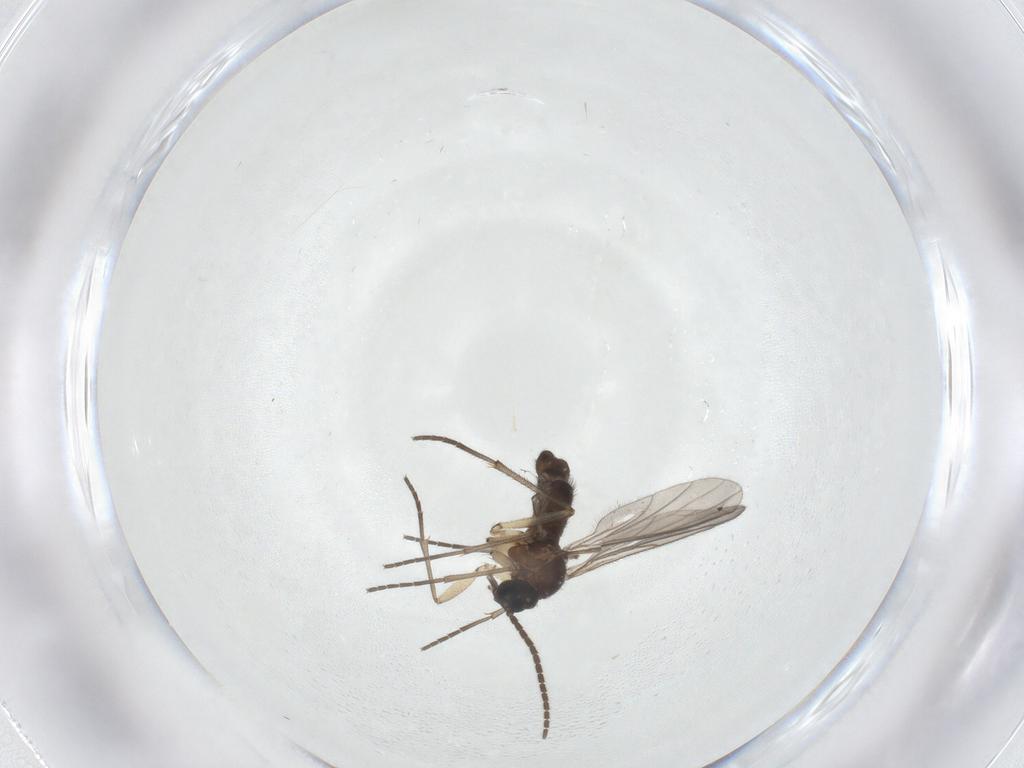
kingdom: Animalia
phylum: Arthropoda
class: Insecta
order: Diptera
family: Sciaridae
